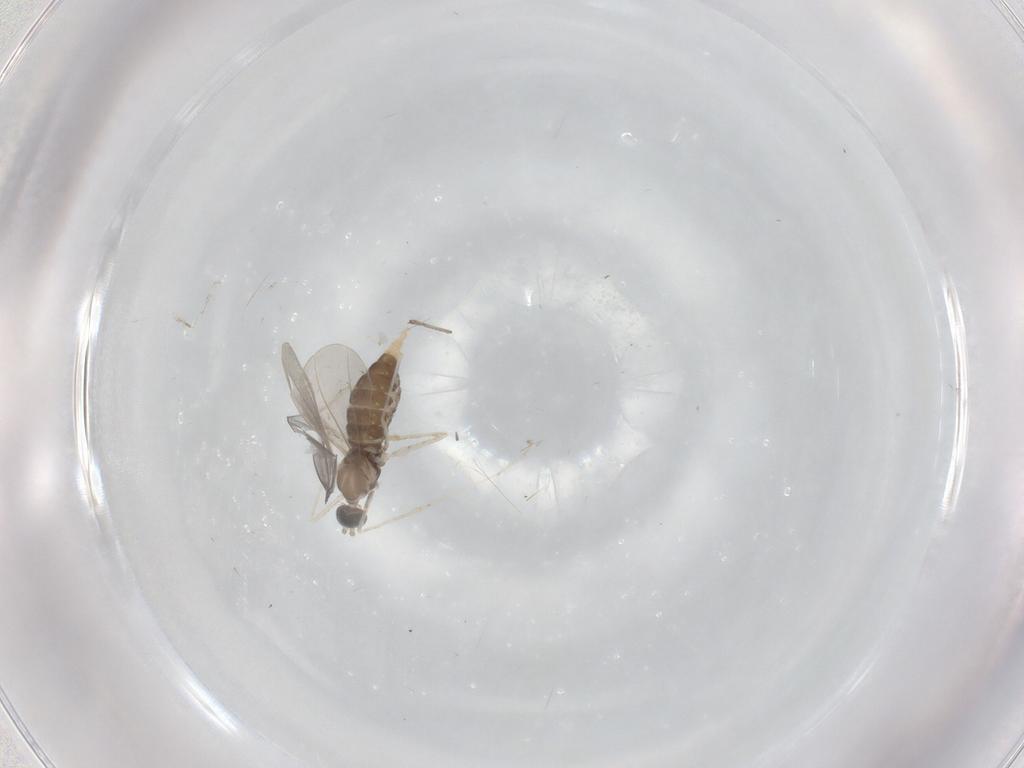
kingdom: Animalia
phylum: Arthropoda
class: Insecta
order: Diptera
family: Cecidomyiidae
